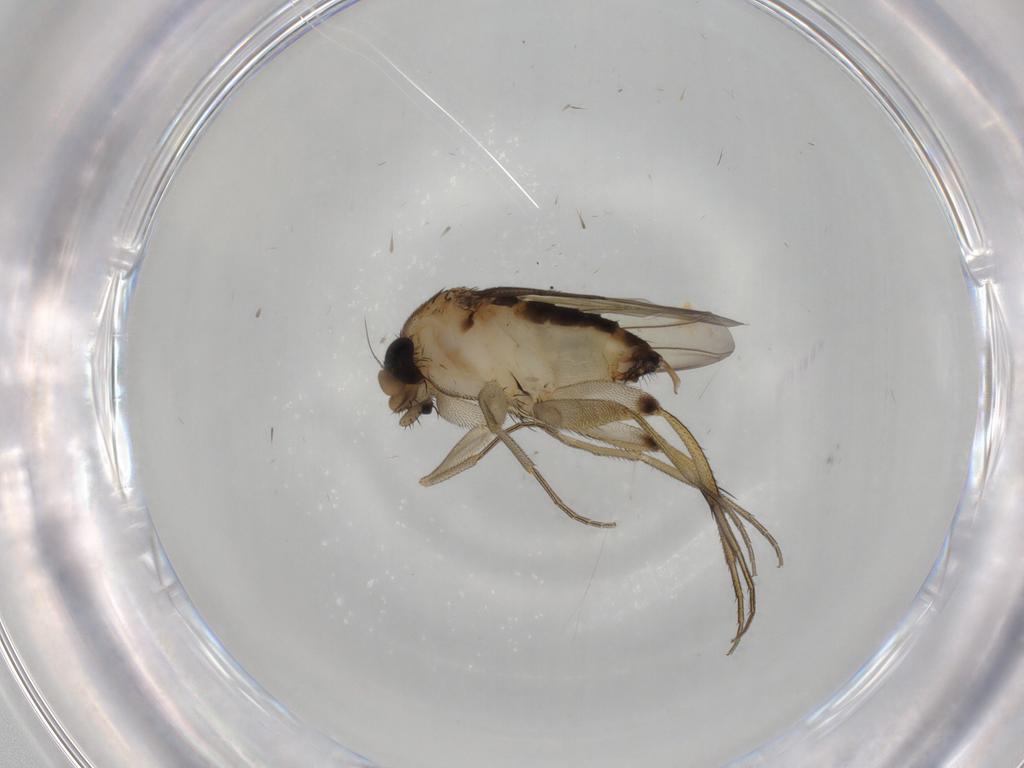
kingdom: Animalia
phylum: Arthropoda
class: Insecta
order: Diptera
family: Phoridae
